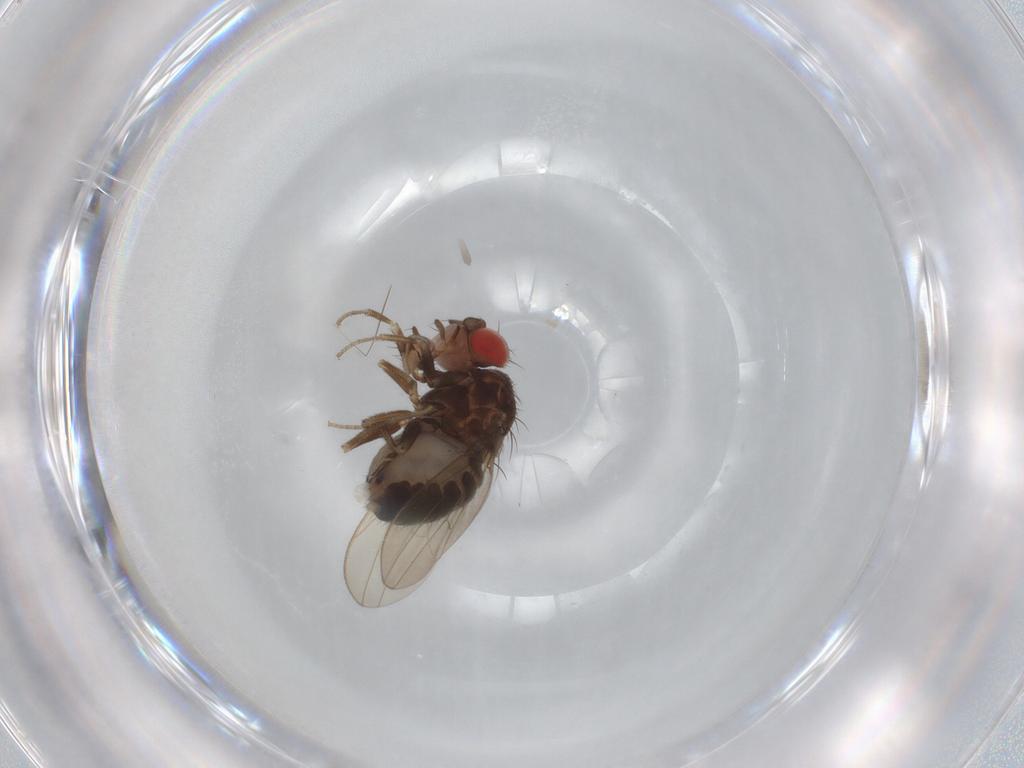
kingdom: Animalia
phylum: Arthropoda
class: Insecta
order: Diptera
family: Drosophilidae
